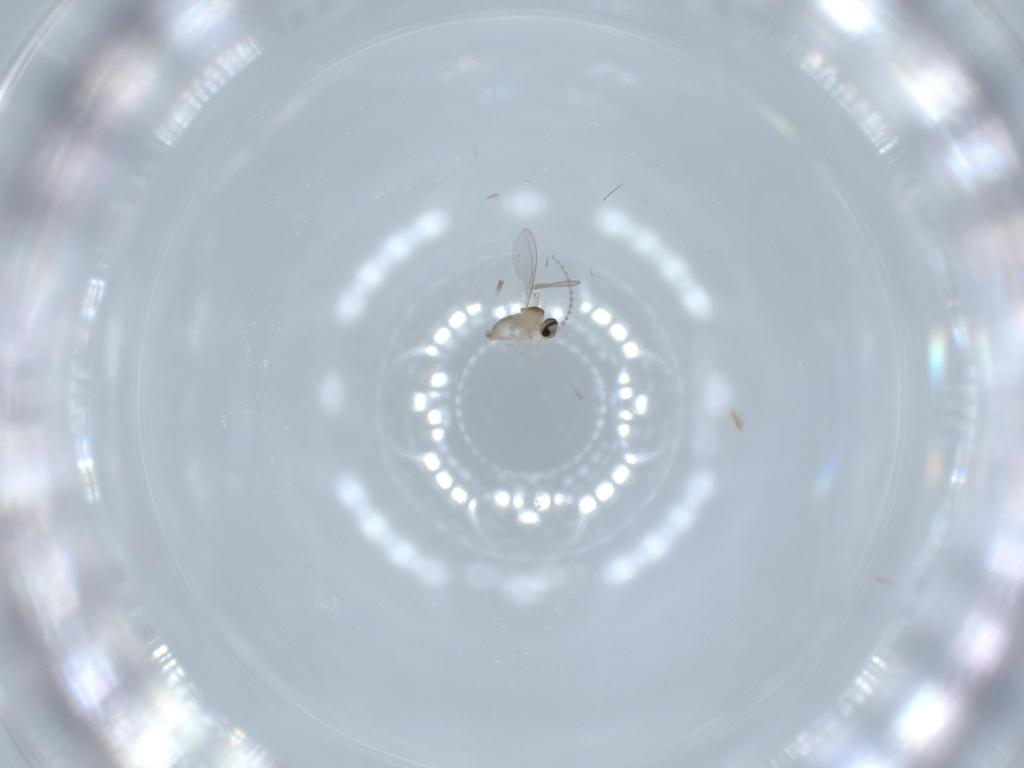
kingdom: Animalia
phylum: Arthropoda
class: Insecta
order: Diptera
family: Cecidomyiidae
